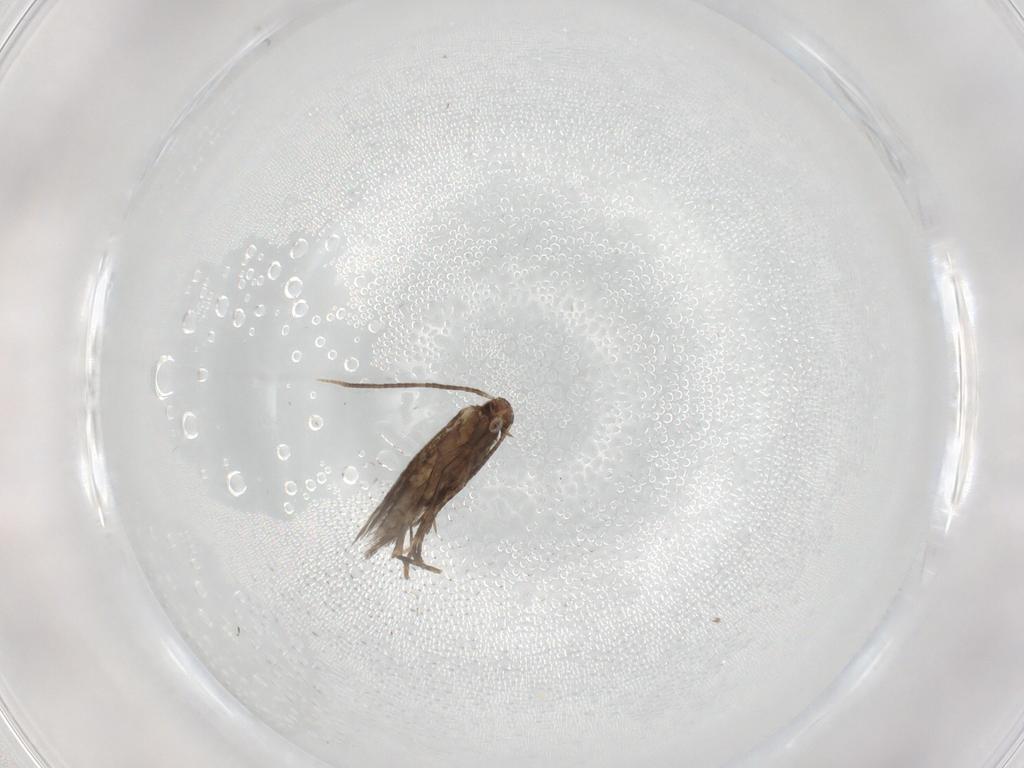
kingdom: Animalia
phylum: Arthropoda
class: Insecta
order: Lepidoptera
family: Gracillariidae
